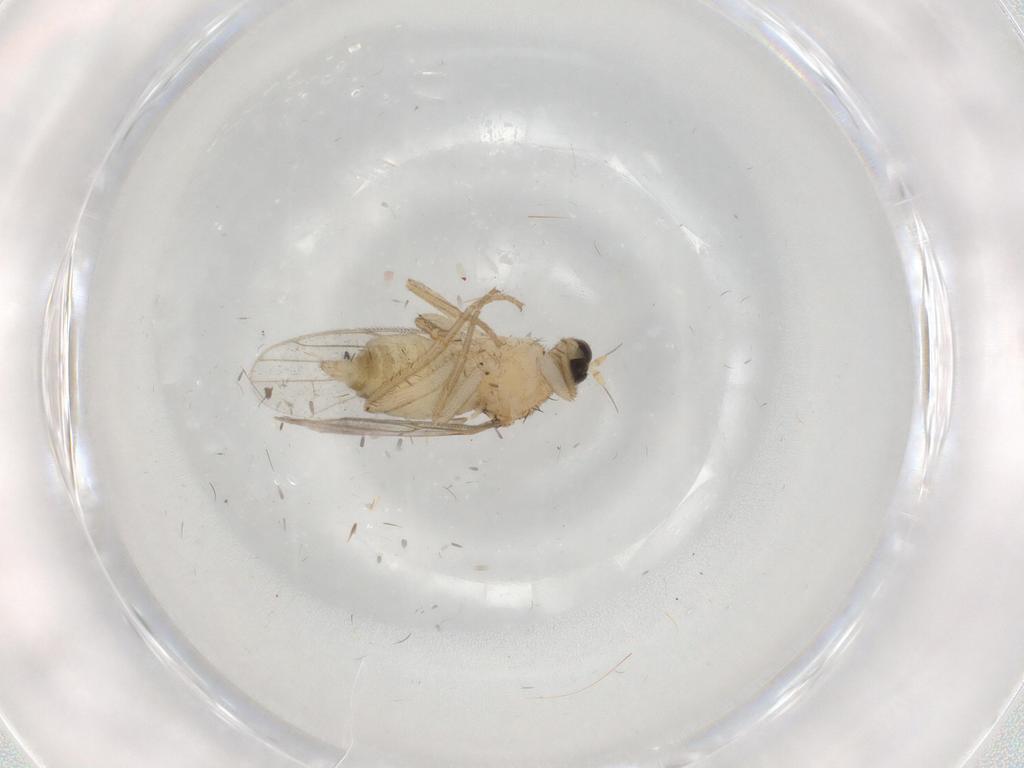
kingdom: Animalia
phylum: Arthropoda
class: Insecta
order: Diptera
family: Hybotidae
